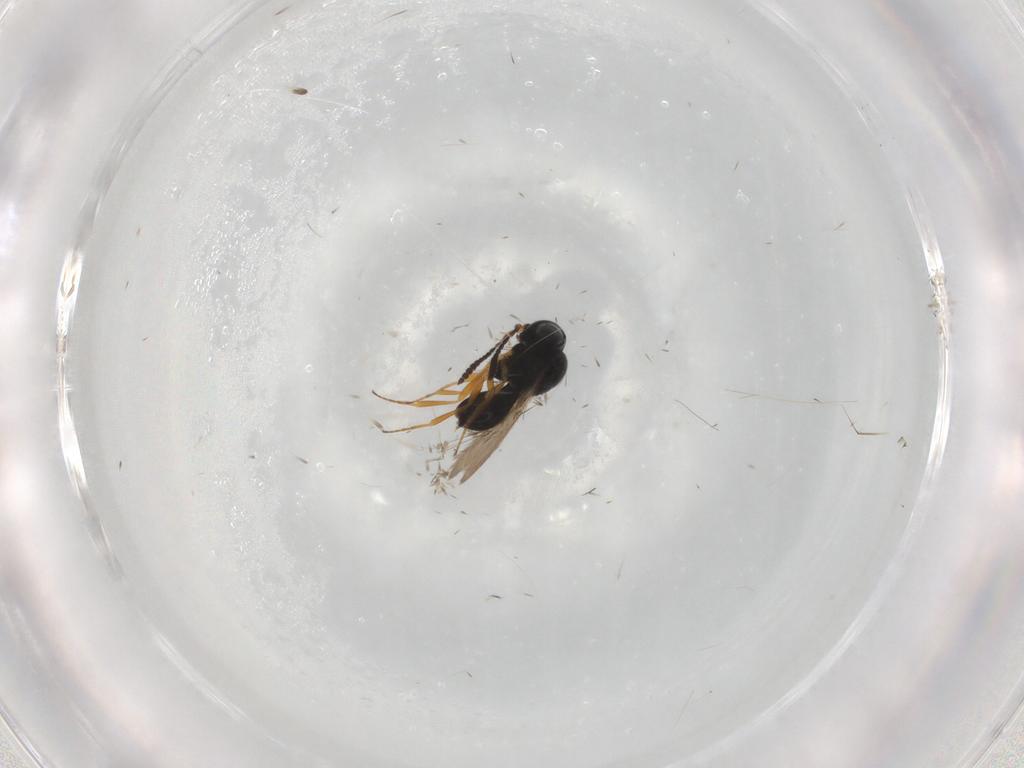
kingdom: Animalia
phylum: Arthropoda
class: Insecta
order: Hymenoptera
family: Scelionidae
